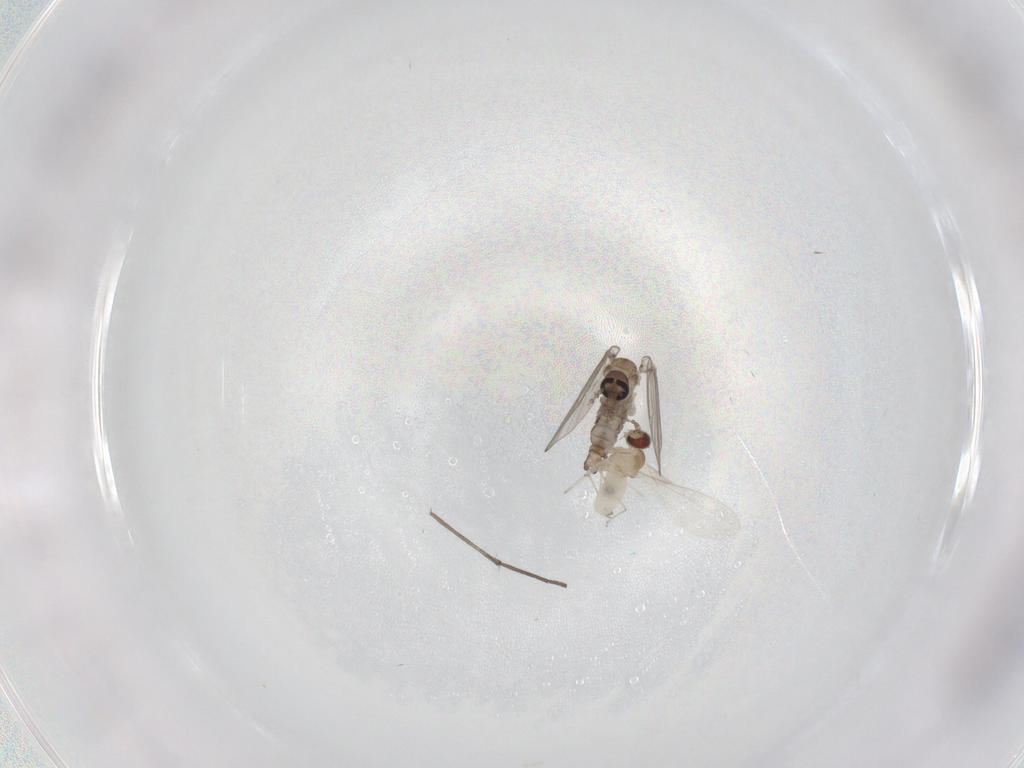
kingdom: Animalia
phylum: Arthropoda
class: Insecta
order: Diptera
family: Psychodidae
